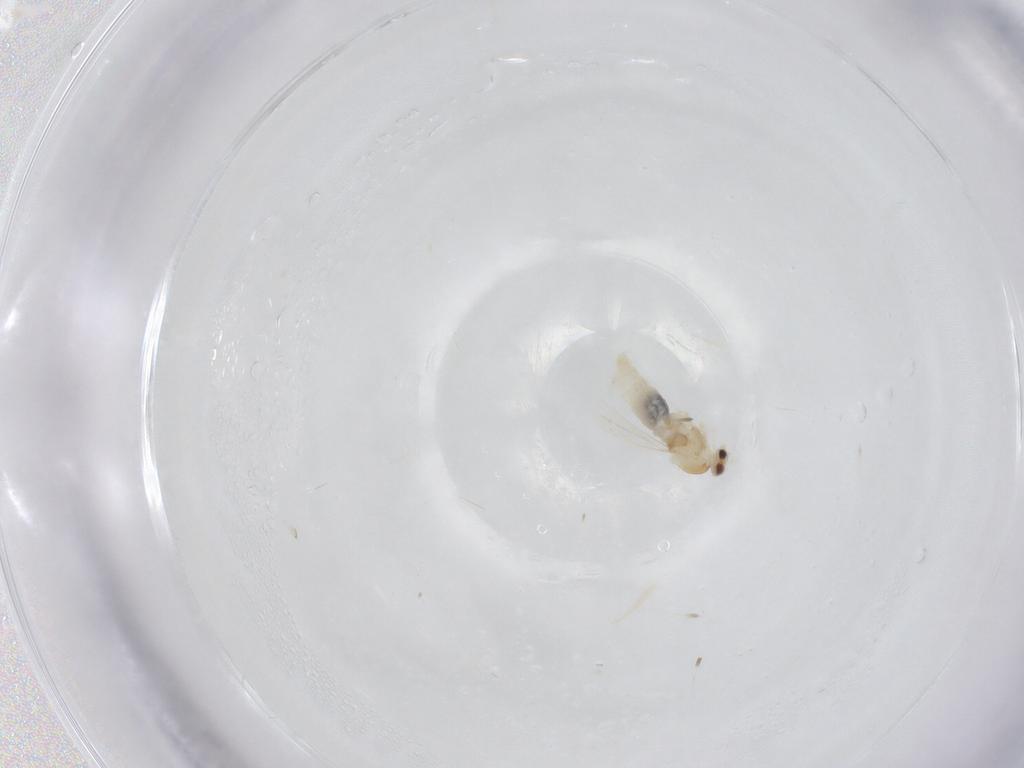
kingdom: Animalia
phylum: Arthropoda
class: Insecta
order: Diptera
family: Cecidomyiidae
